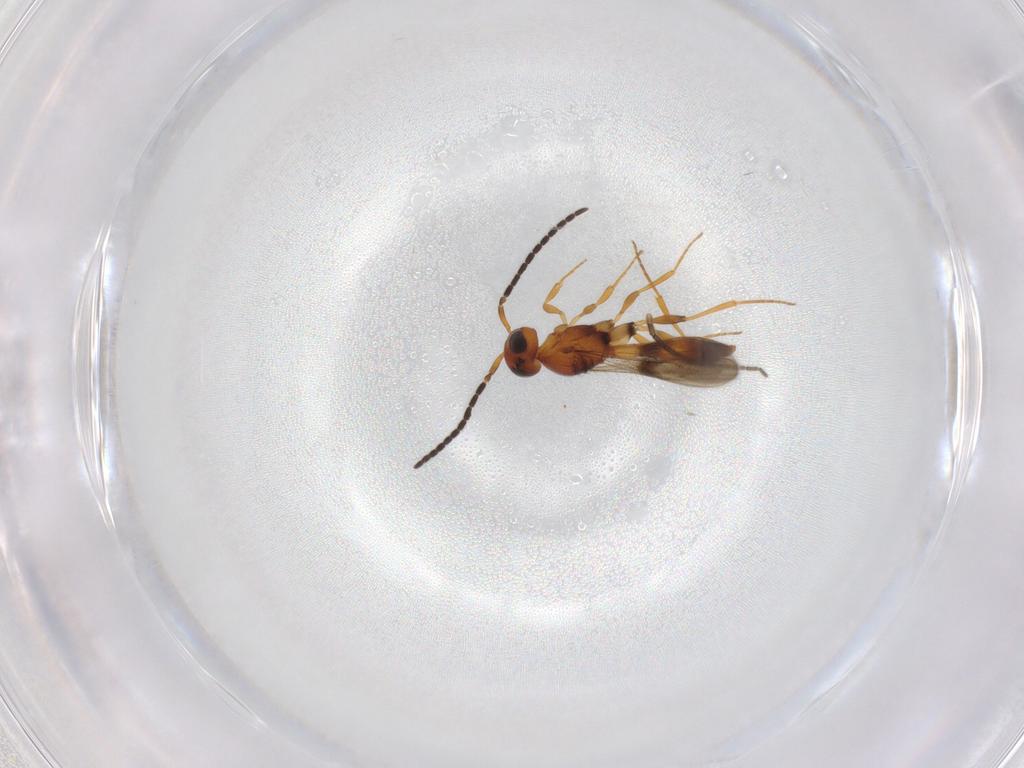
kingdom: Animalia
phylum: Arthropoda
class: Insecta
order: Hymenoptera
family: Scelionidae
